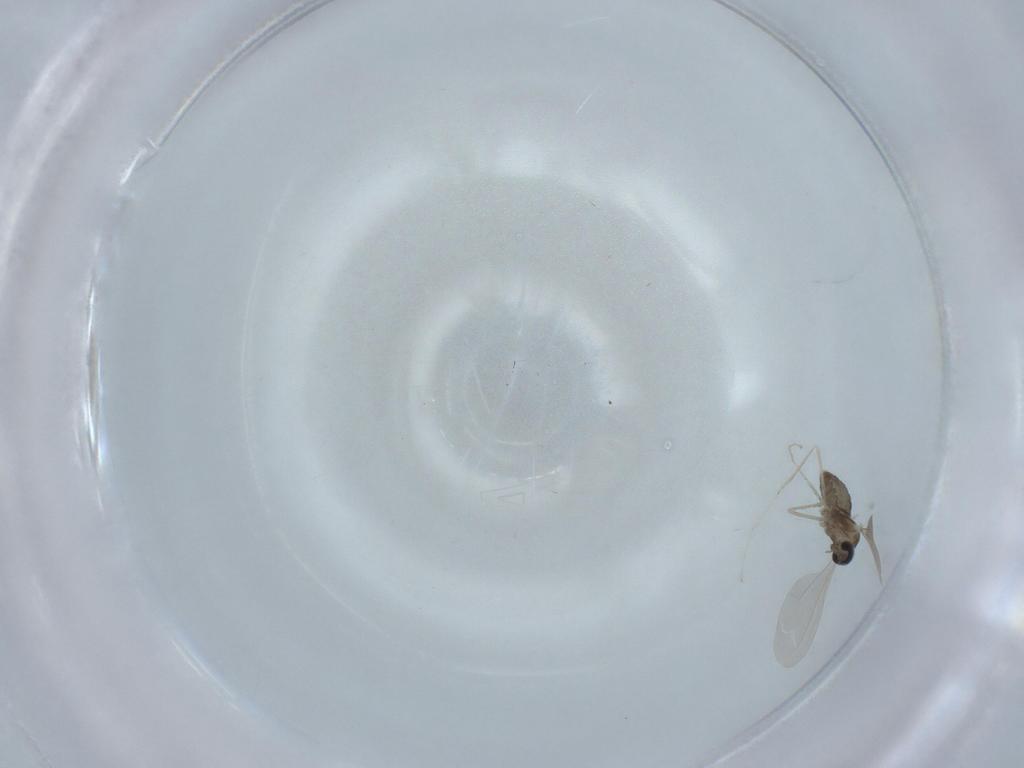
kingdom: Animalia
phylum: Arthropoda
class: Insecta
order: Diptera
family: Cecidomyiidae
